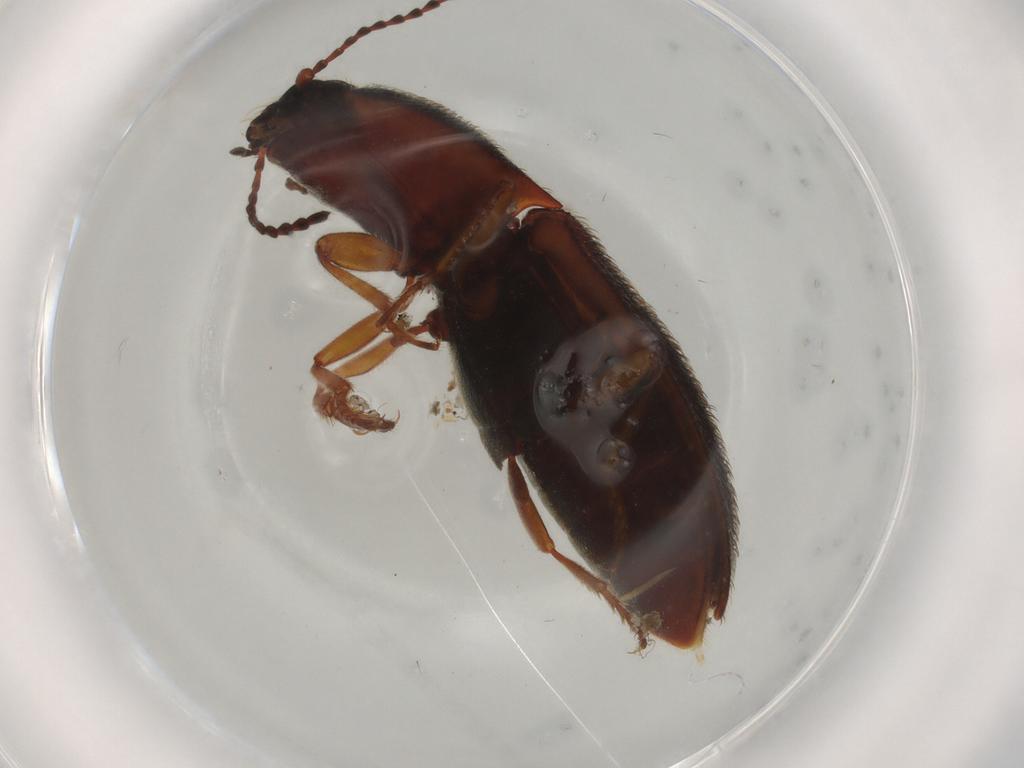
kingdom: Animalia
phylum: Arthropoda
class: Insecta
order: Coleoptera
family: Elateridae
